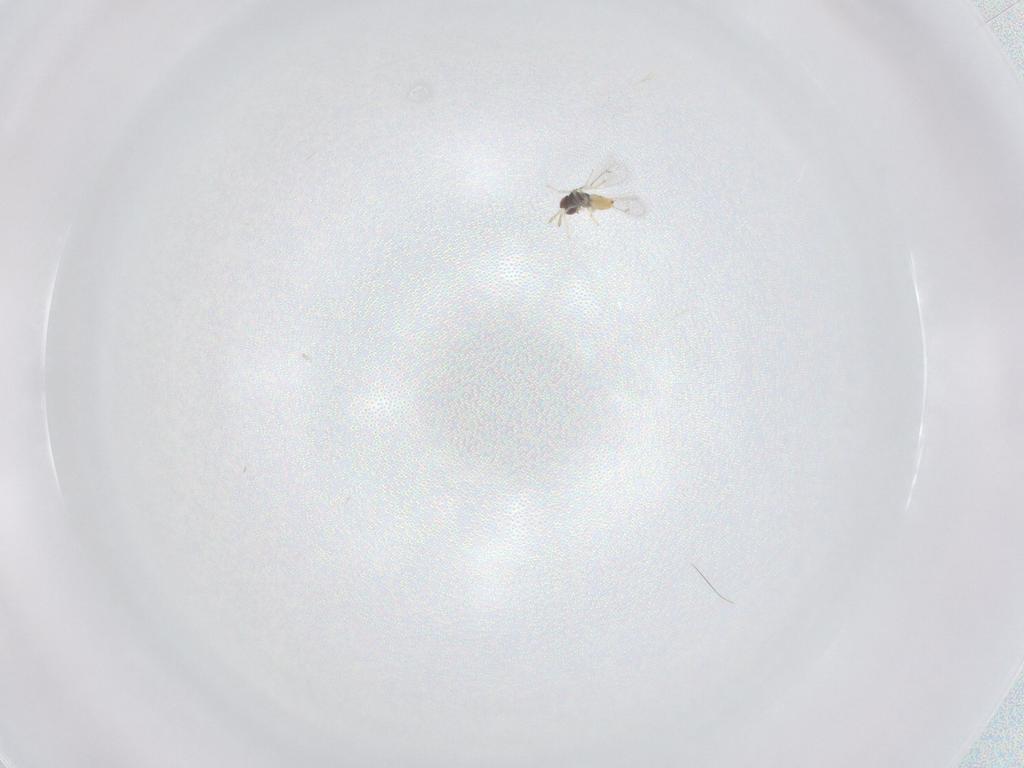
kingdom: Animalia
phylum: Arthropoda
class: Insecta
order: Hymenoptera
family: Eulophidae
